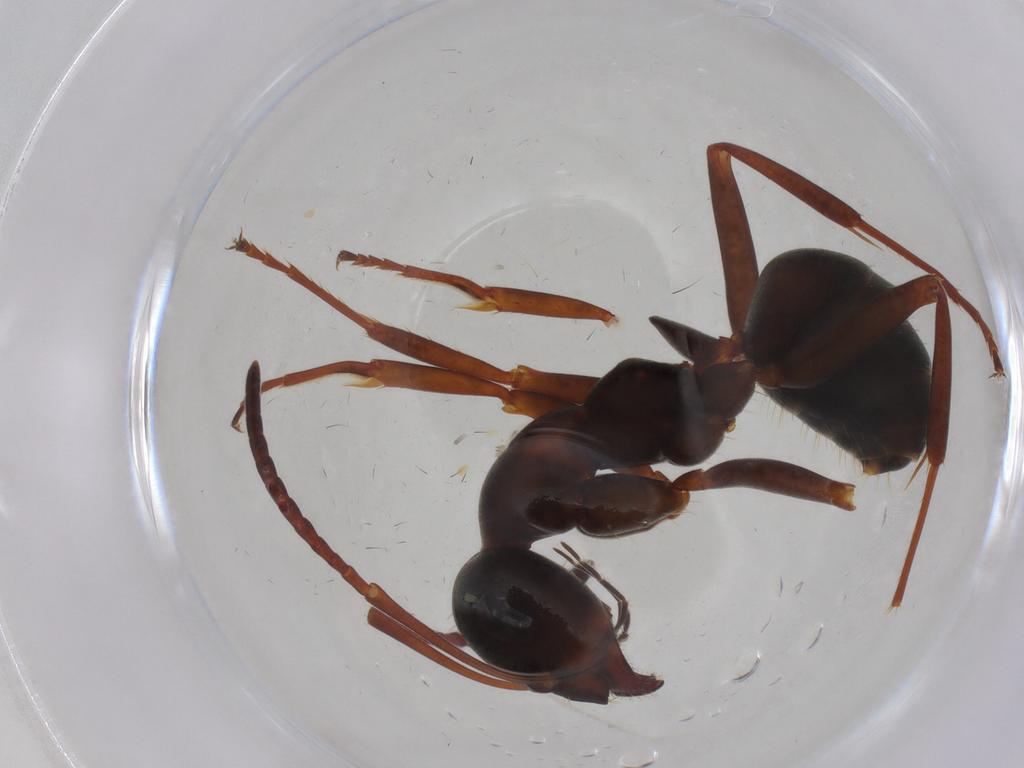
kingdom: Animalia
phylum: Arthropoda
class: Insecta
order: Hymenoptera
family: Formicidae
